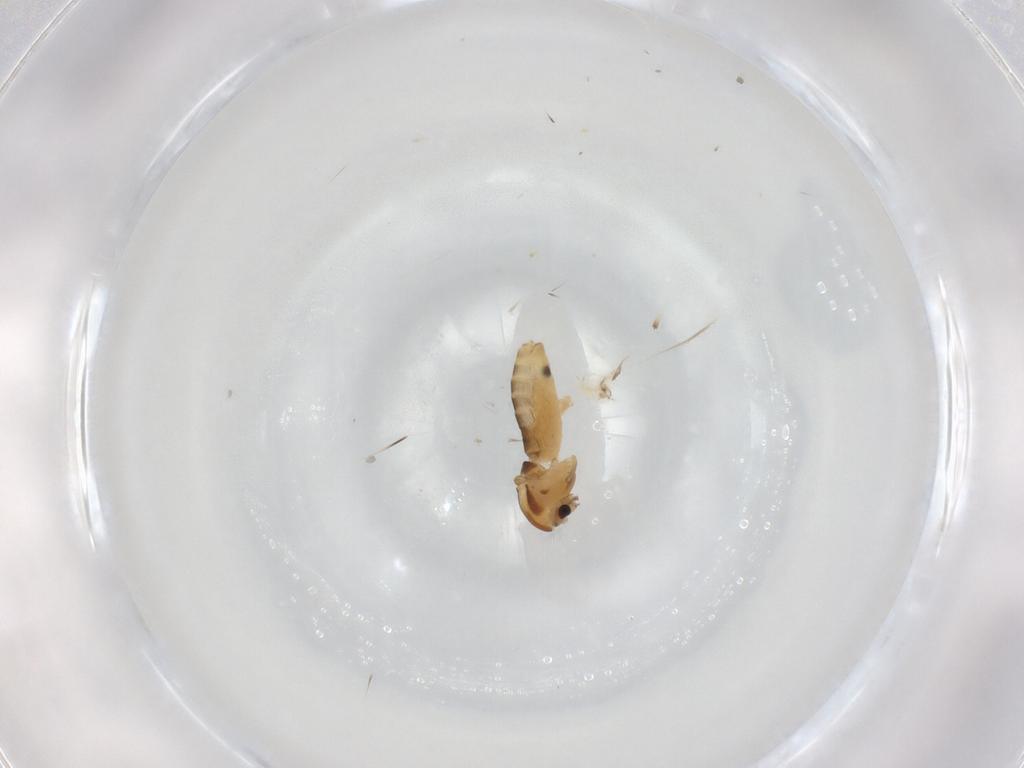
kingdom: Animalia
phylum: Arthropoda
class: Insecta
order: Diptera
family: Chironomidae
